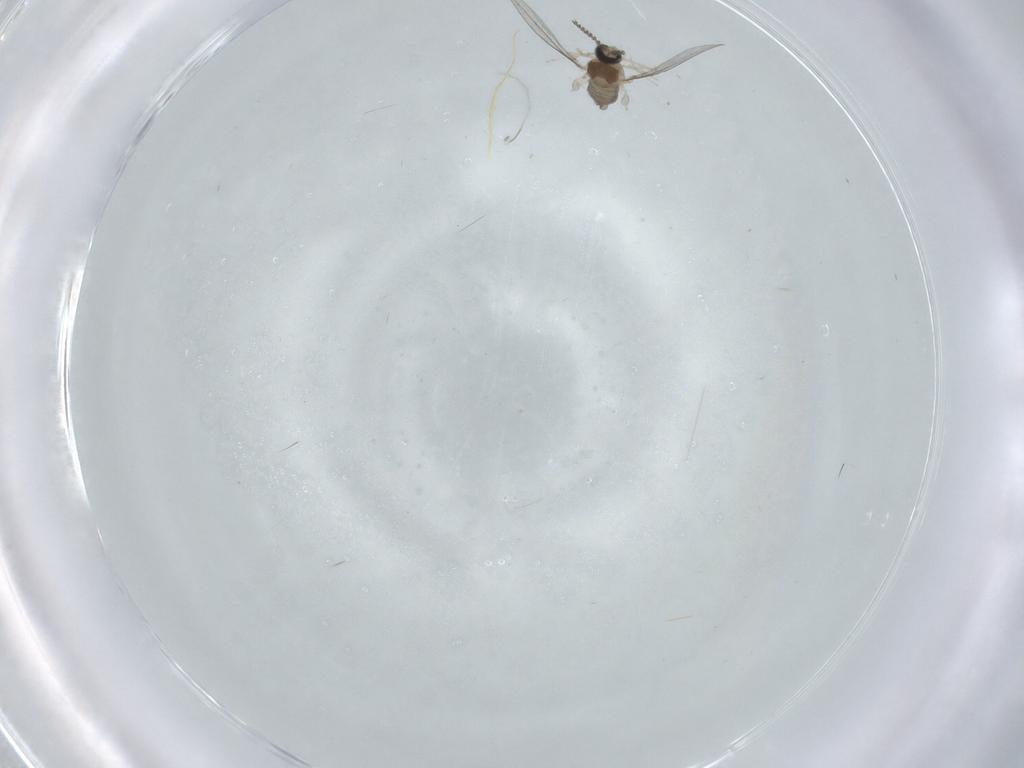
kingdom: Animalia
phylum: Arthropoda
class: Insecta
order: Diptera
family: Cecidomyiidae
